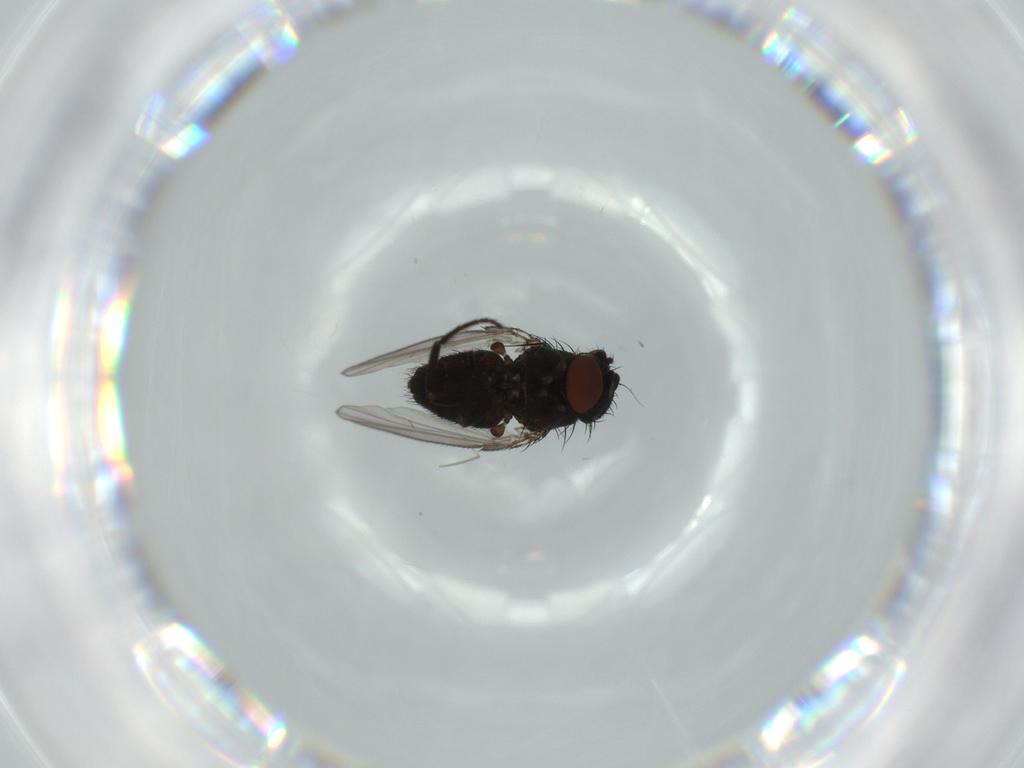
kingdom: Animalia
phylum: Arthropoda
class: Insecta
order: Diptera
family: Milichiidae
